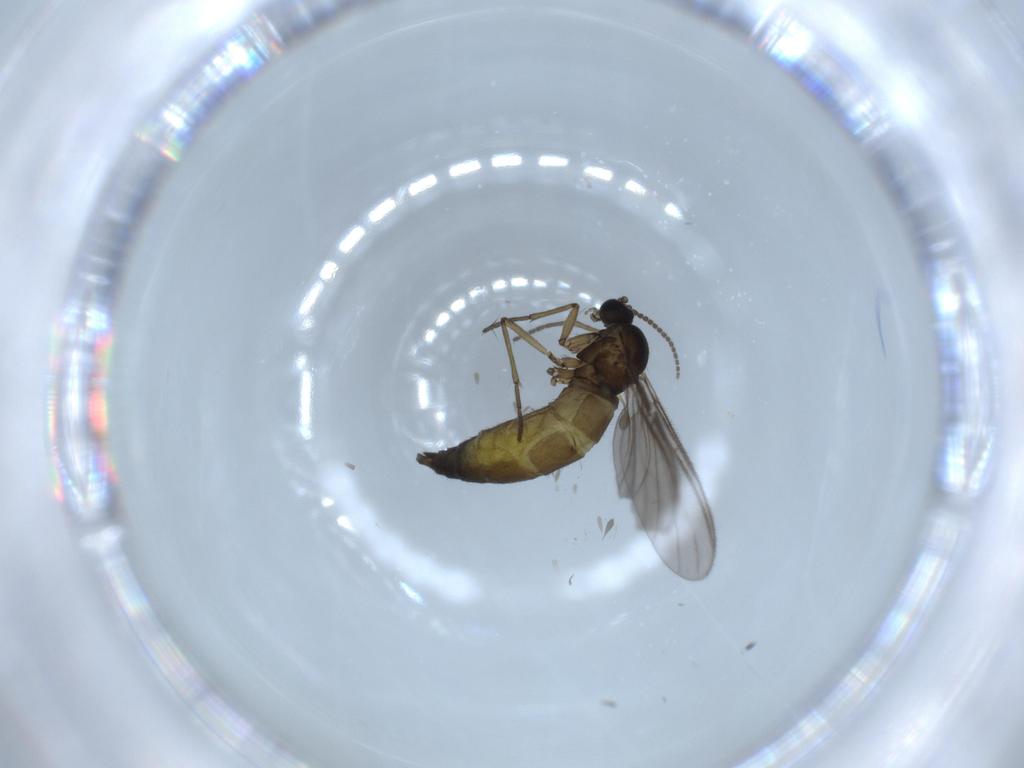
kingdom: Animalia
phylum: Arthropoda
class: Insecta
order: Diptera
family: Sciaridae
